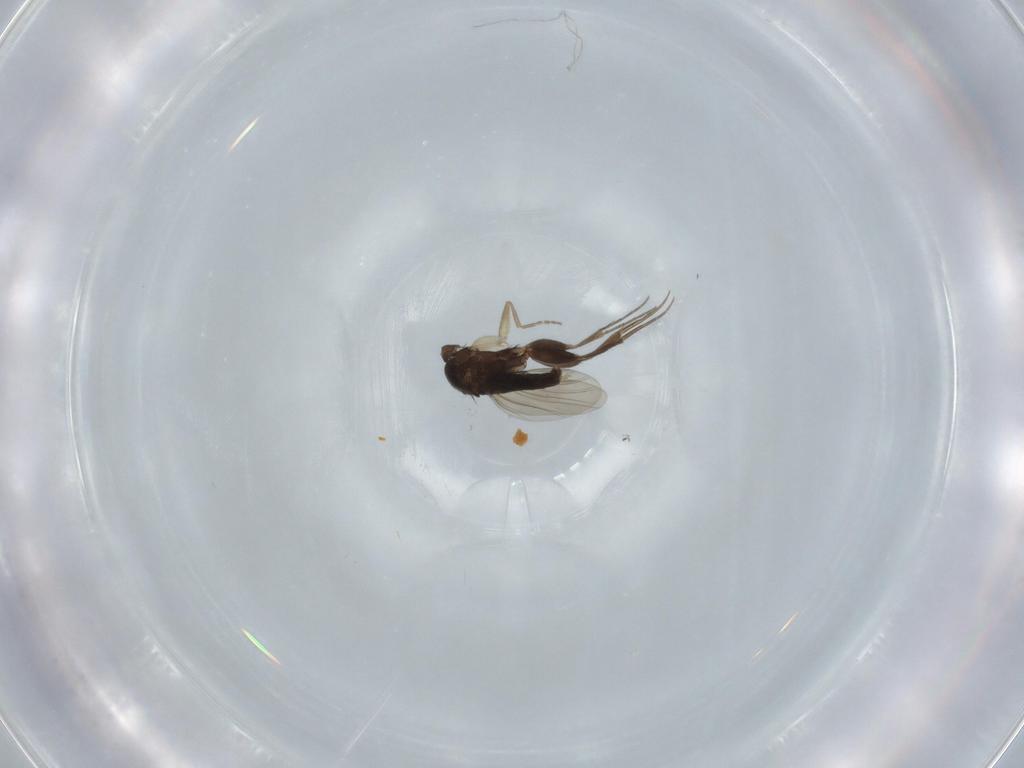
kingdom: Animalia
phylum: Arthropoda
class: Insecta
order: Diptera
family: Phoridae
